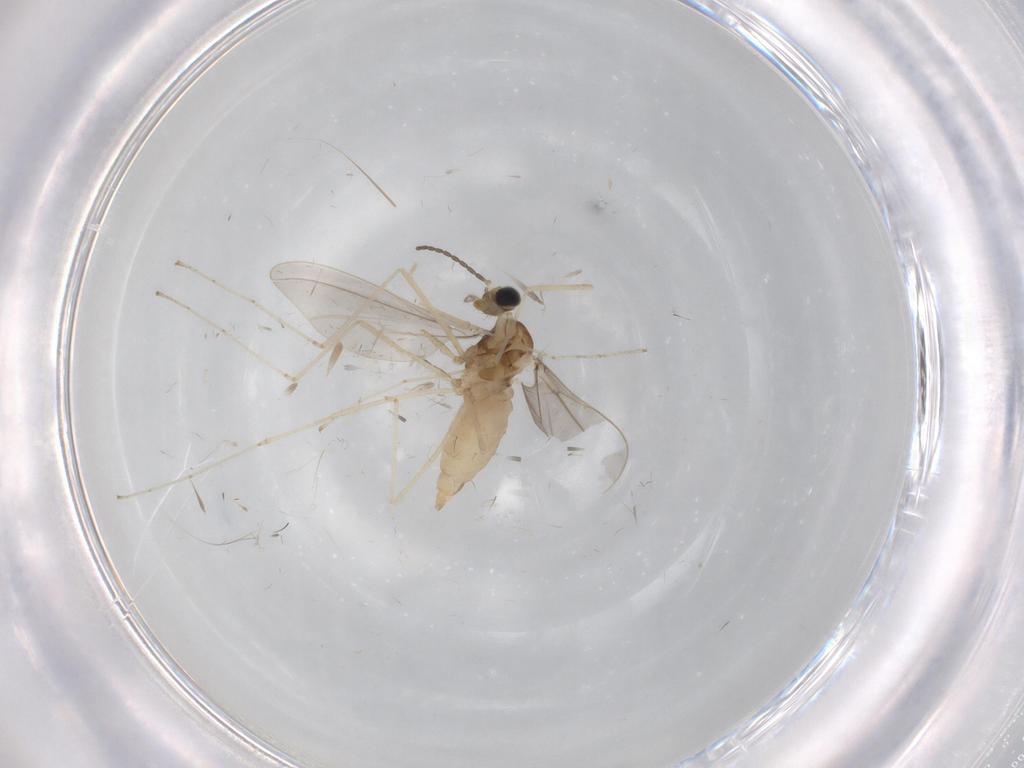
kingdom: Animalia
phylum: Arthropoda
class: Insecta
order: Diptera
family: Cecidomyiidae
